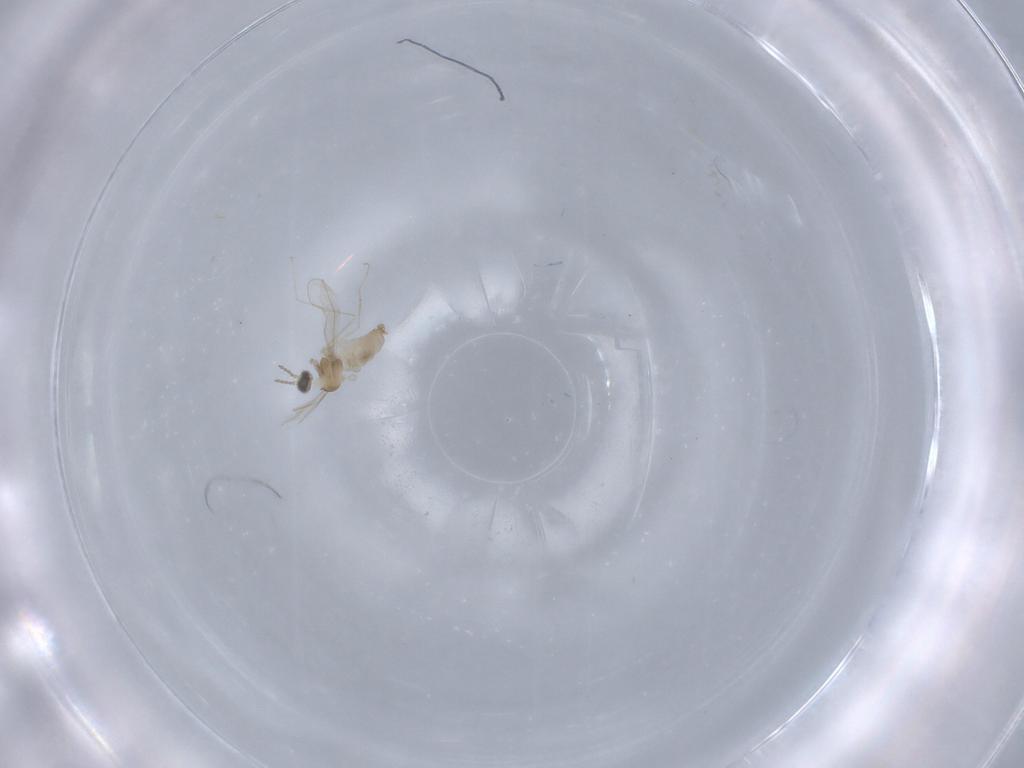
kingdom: Animalia
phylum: Arthropoda
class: Insecta
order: Diptera
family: Cecidomyiidae
